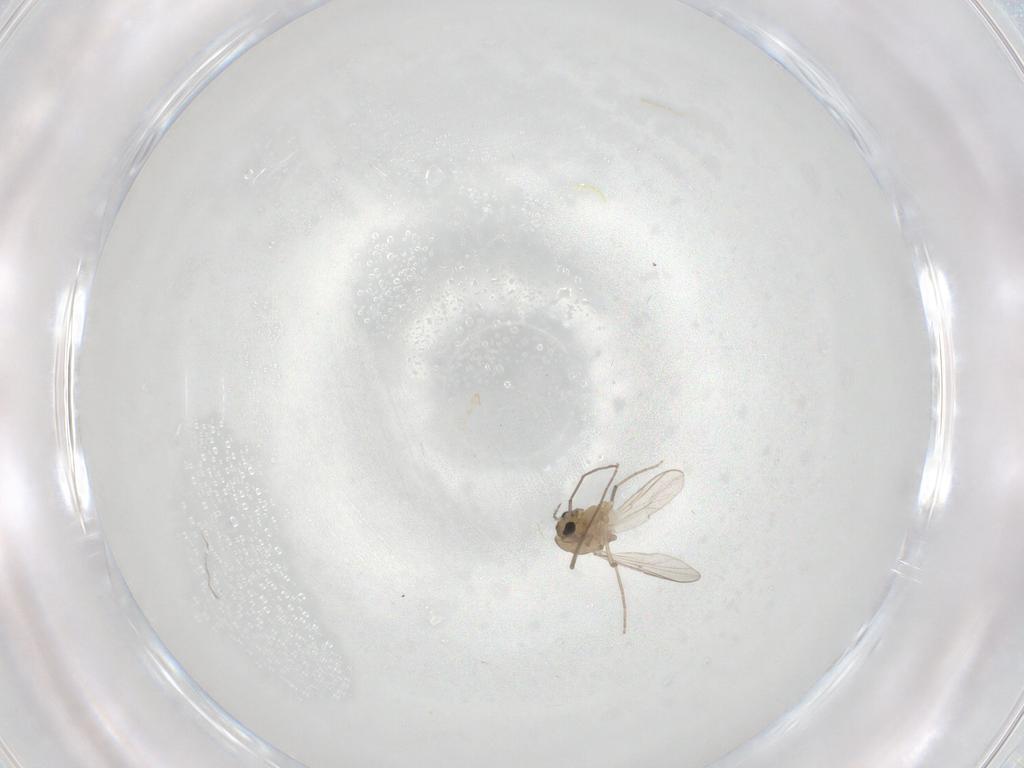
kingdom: Animalia
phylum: Arthropoda
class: Insecta
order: Diptera
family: Chironomidae
